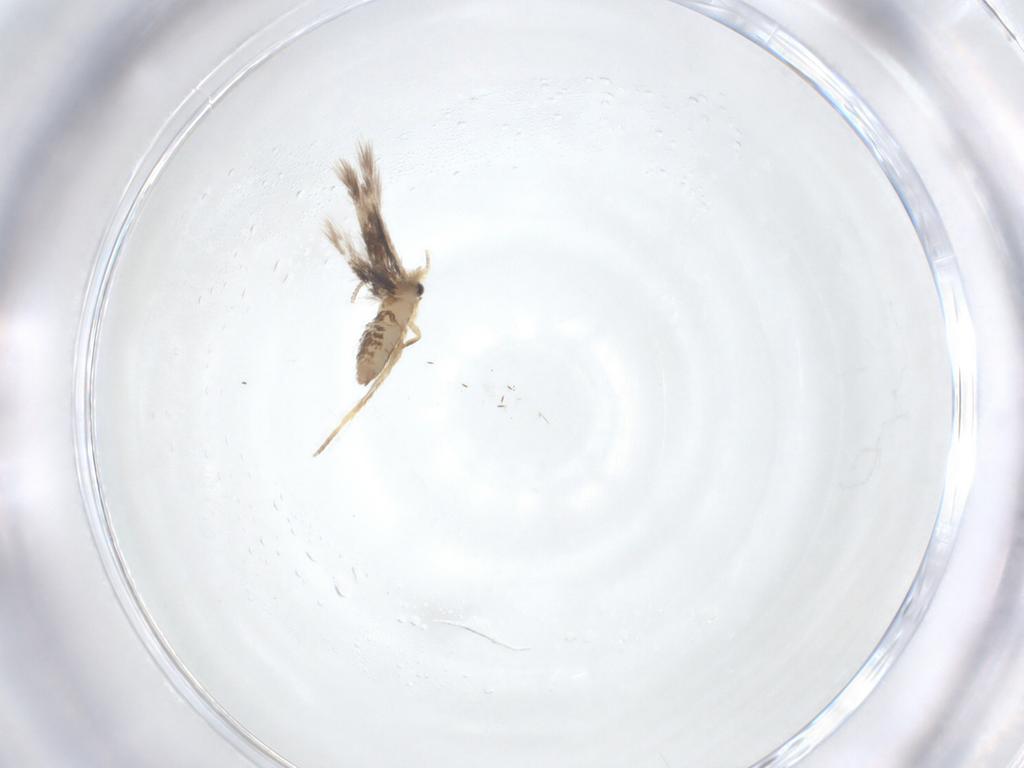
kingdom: Animalia
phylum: Arthropoda
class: Insecta
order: Lepidoptera
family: Nepticulidae
